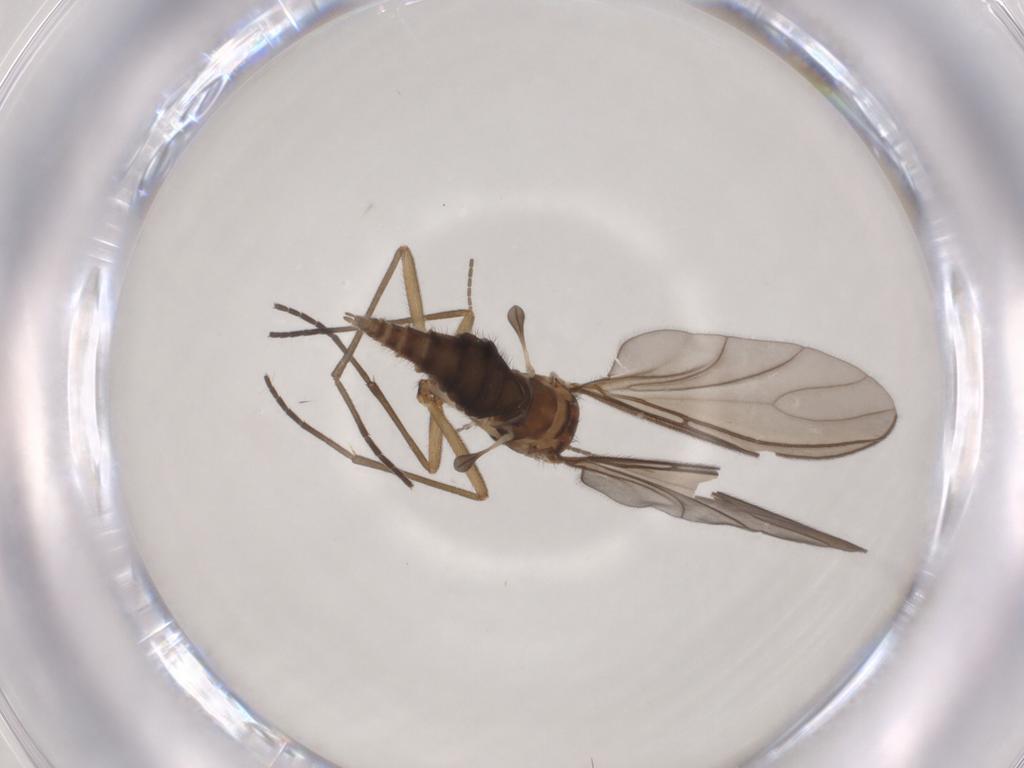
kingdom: Animalia
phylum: Arthropoda
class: Insecta
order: Diptera
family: Sciaridae
